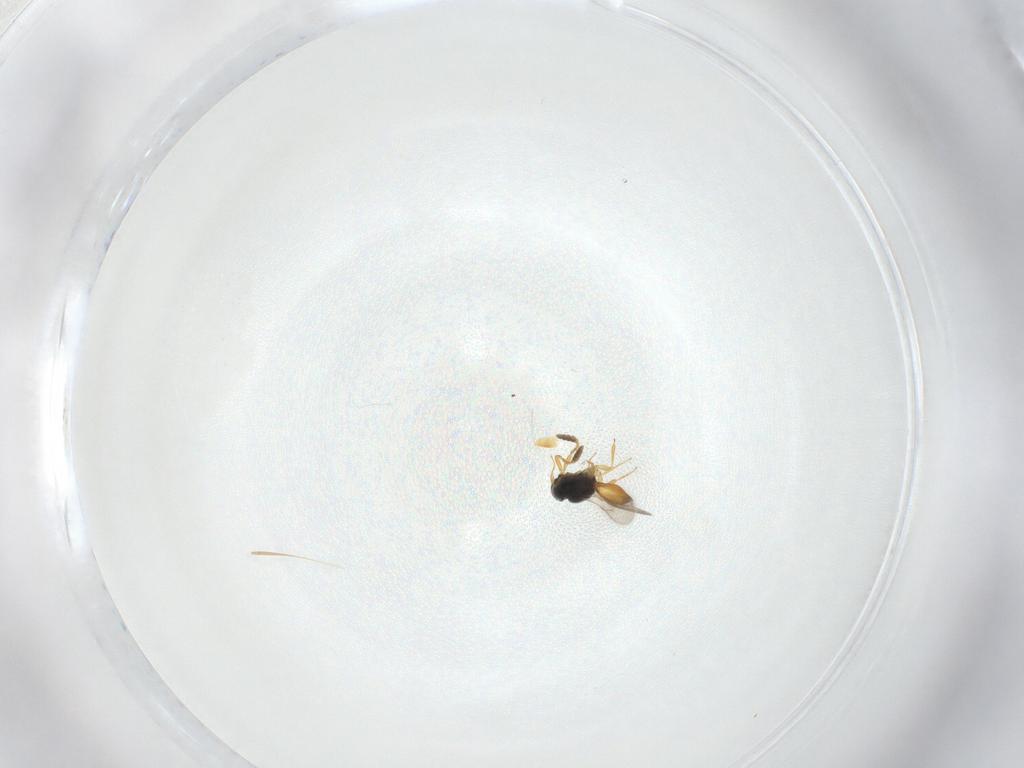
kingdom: Animalia
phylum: Arthropoda
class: Insecta
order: Hymenoptera
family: Scelionidae
